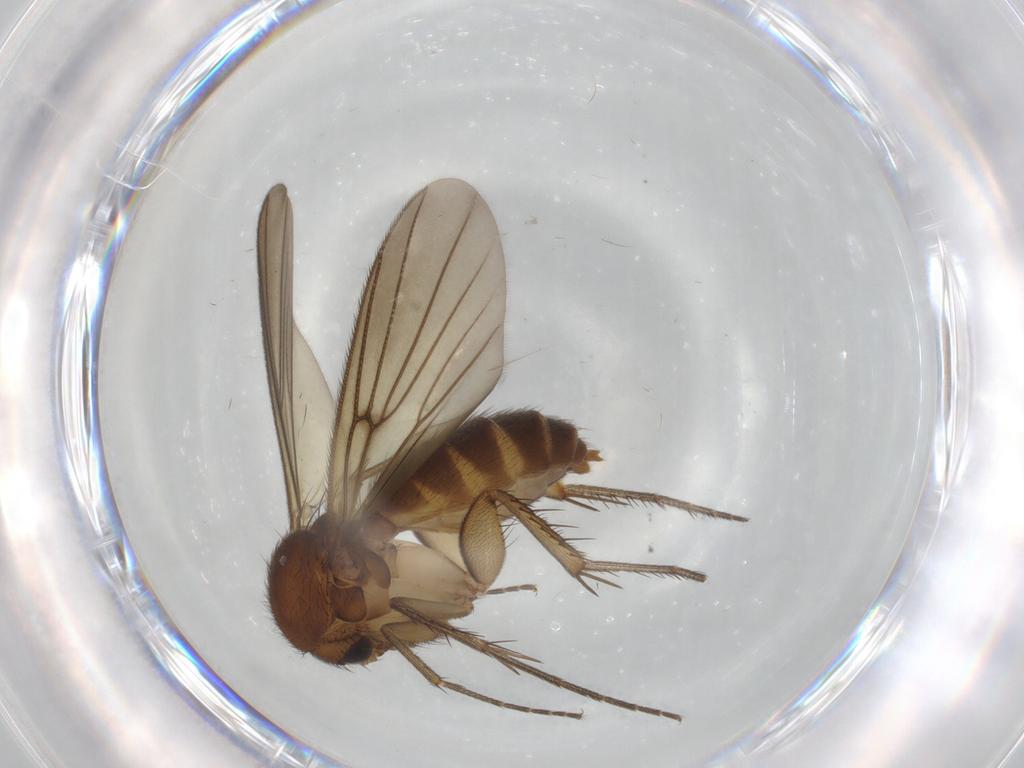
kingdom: Animalia
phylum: Arthropoda
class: Insecta
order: Diptera
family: Mycetophilidae
